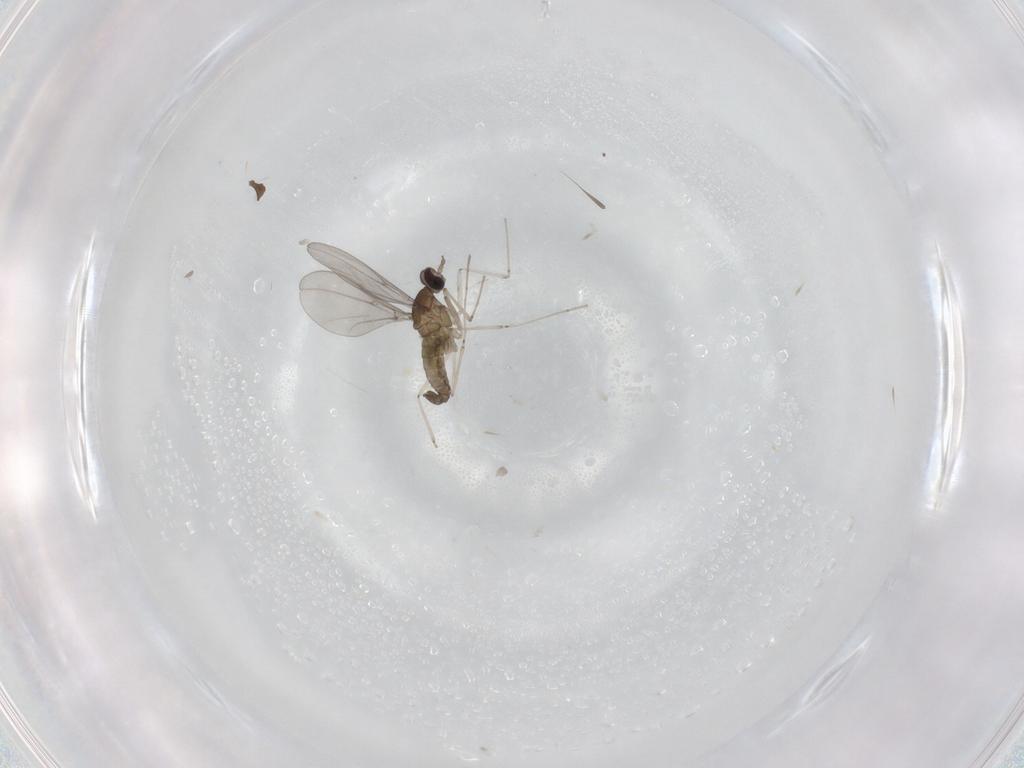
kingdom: Animalia
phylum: Arthropoda
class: Insecta
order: Diptera
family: Cecidomyiidae
